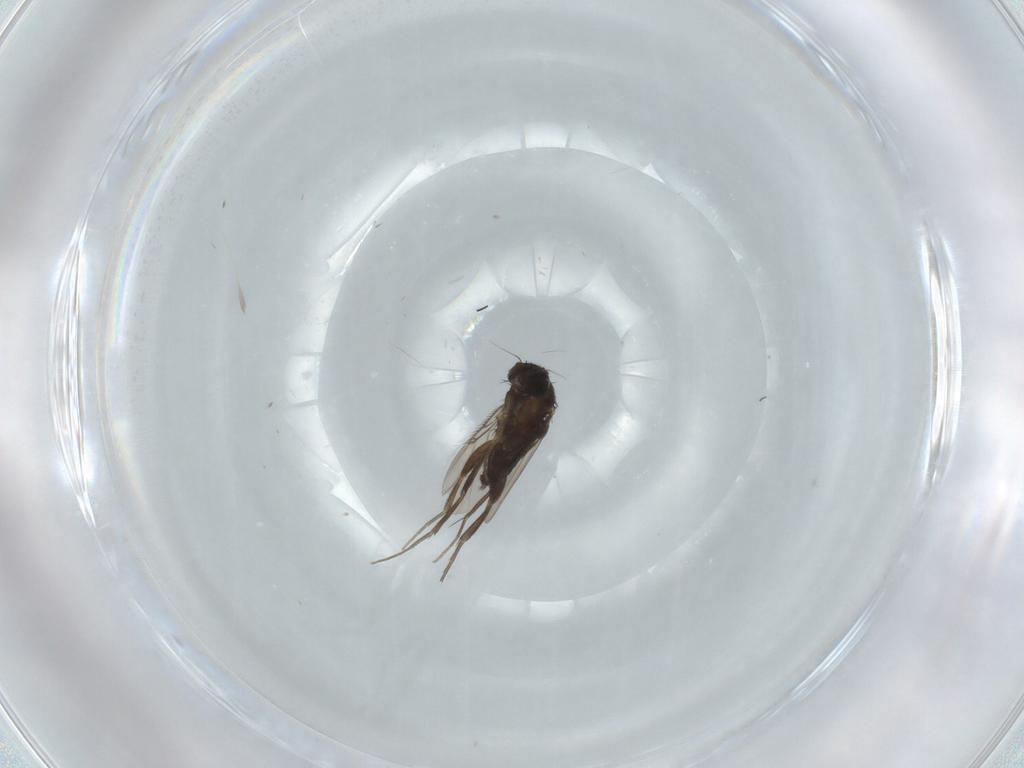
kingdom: Animalia
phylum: Arthropoda
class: Insecta
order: Diptera
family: Sciaridae
